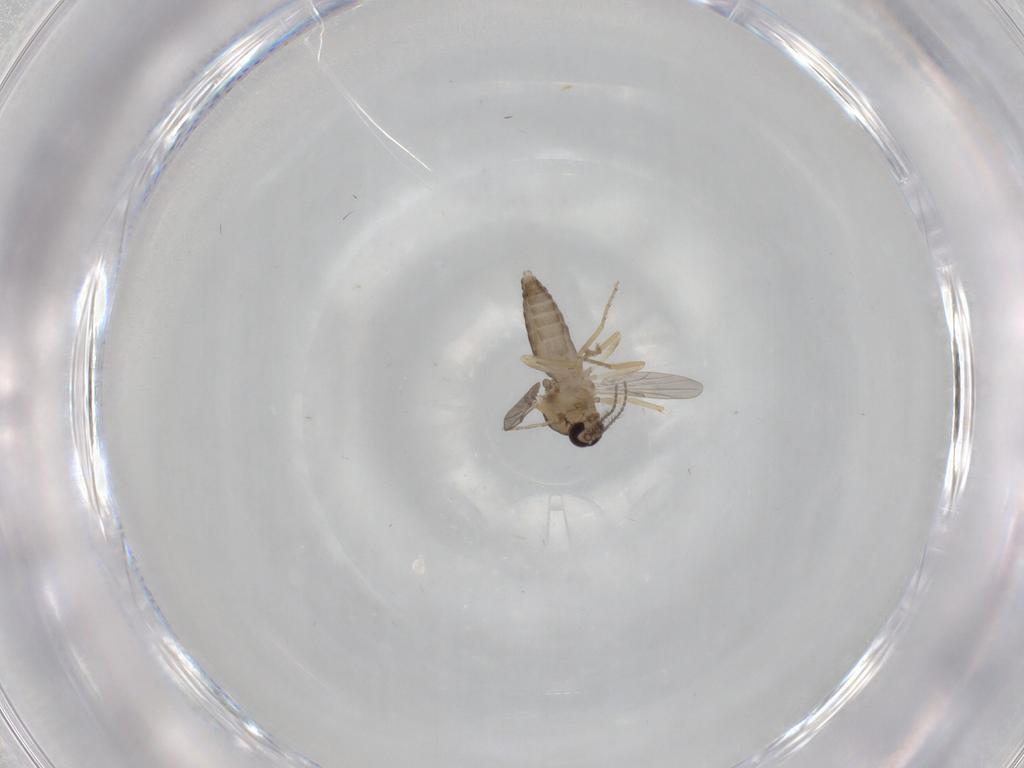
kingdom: Animalia
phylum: Arthropoda
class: Insecta
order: Diptera
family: Ceratopogonidae
